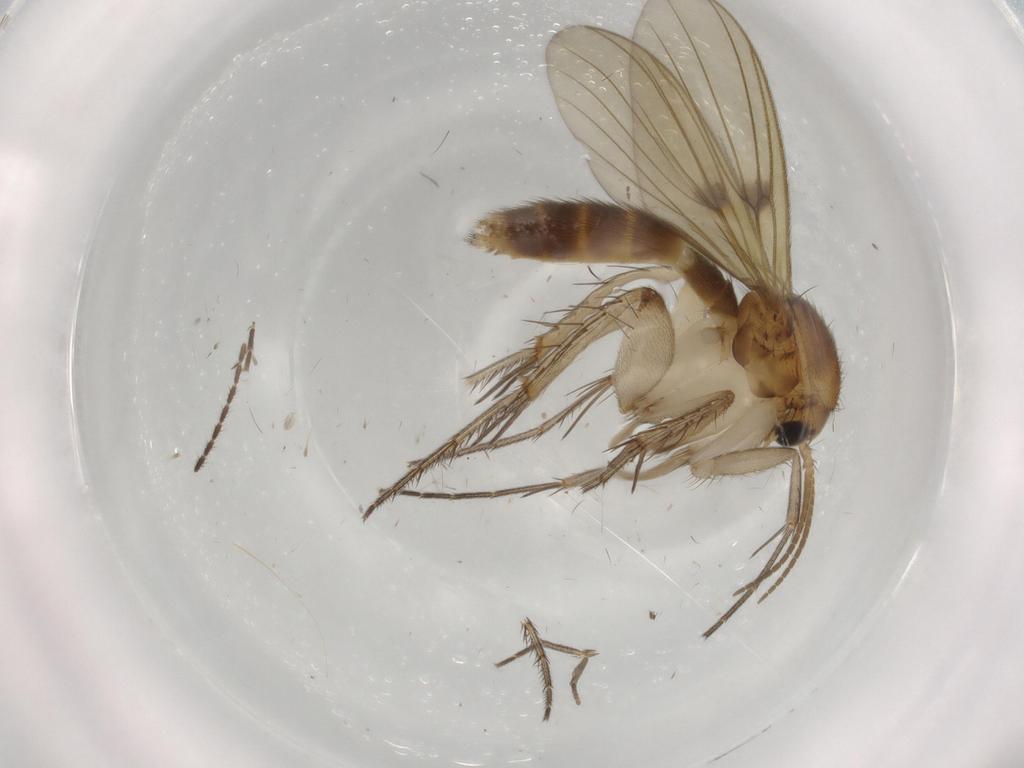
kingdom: Animalia
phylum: Arthropoda
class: Insecta
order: Diptera
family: Mycetophilidae
